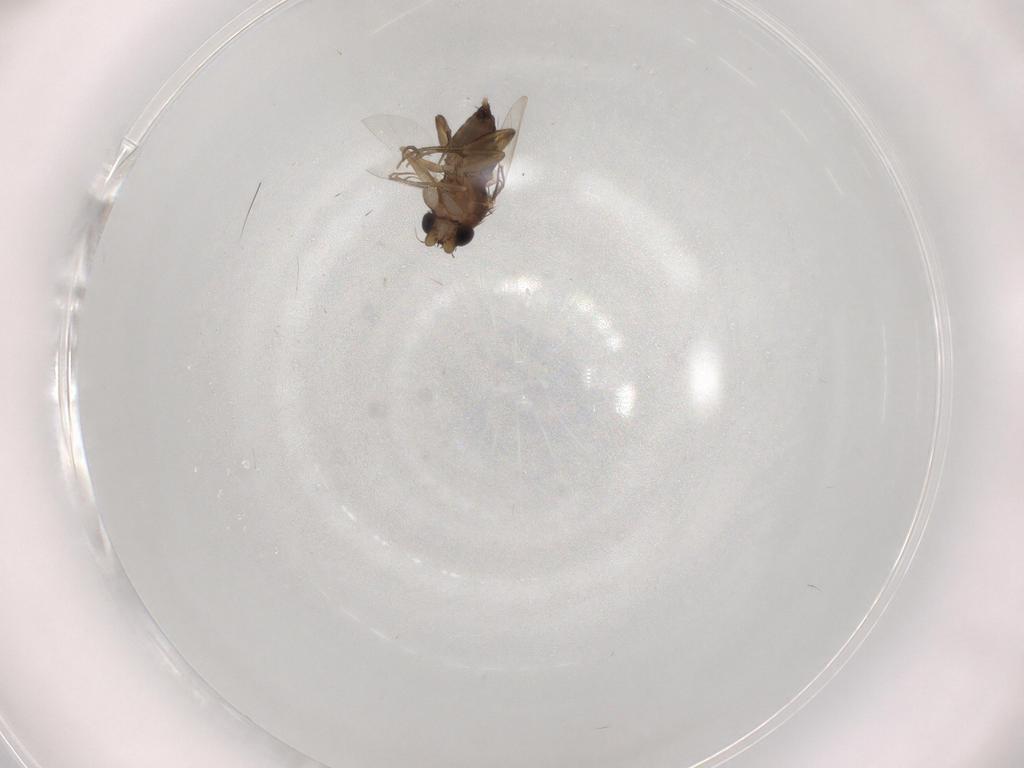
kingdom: Animalia
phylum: Arthropoda
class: Insecta
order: Diptera
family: Phoridae
